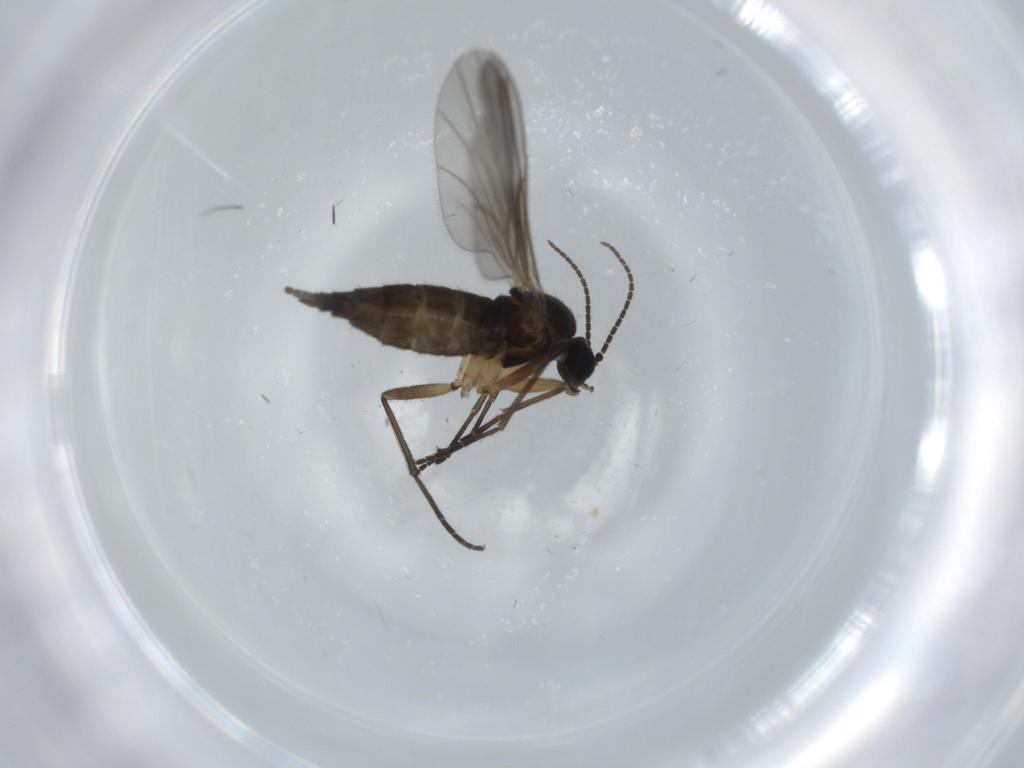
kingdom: Animalia
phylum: Arthropoda
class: Insecta
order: Diptera
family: Sciaridae
